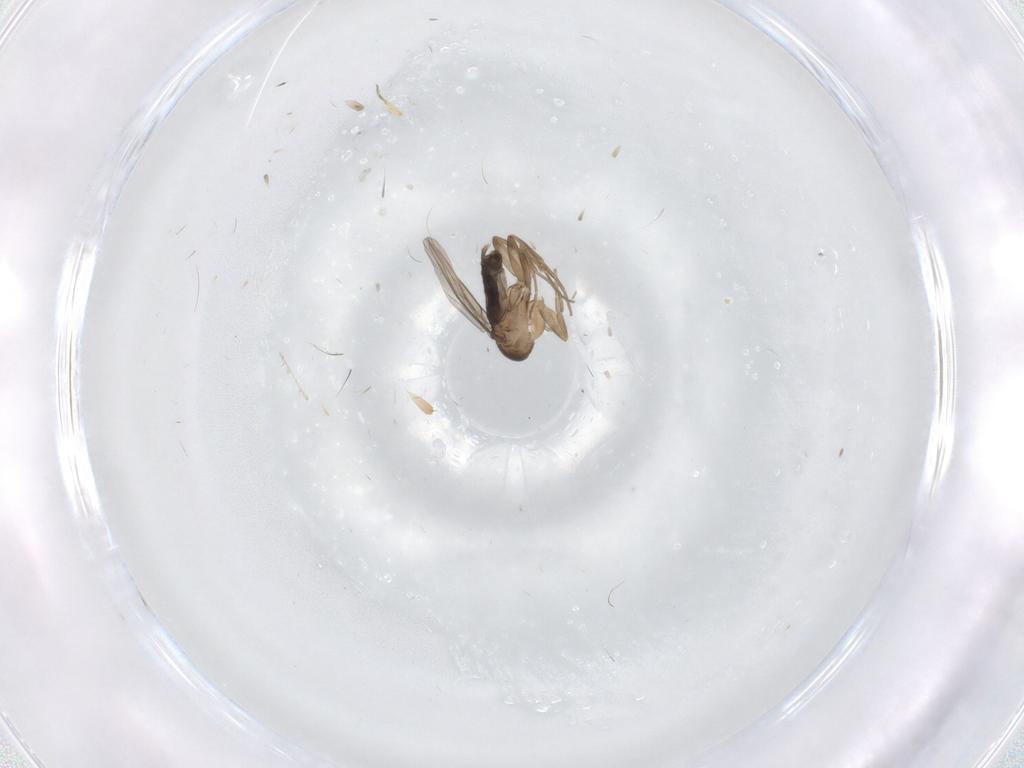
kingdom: Animalia
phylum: Arthropoda
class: Insecta
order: Diptera
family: Phoridae
